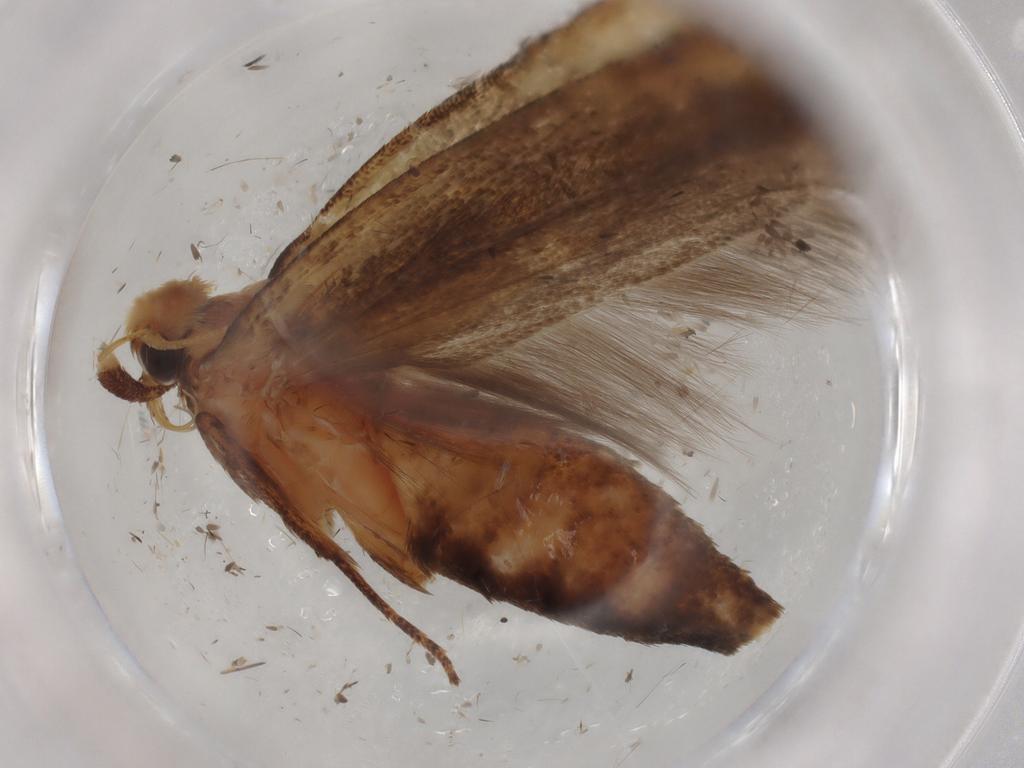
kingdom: Animalia
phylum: Arthropoda
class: Insecta
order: Lepidoptera
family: Gelechiidae
